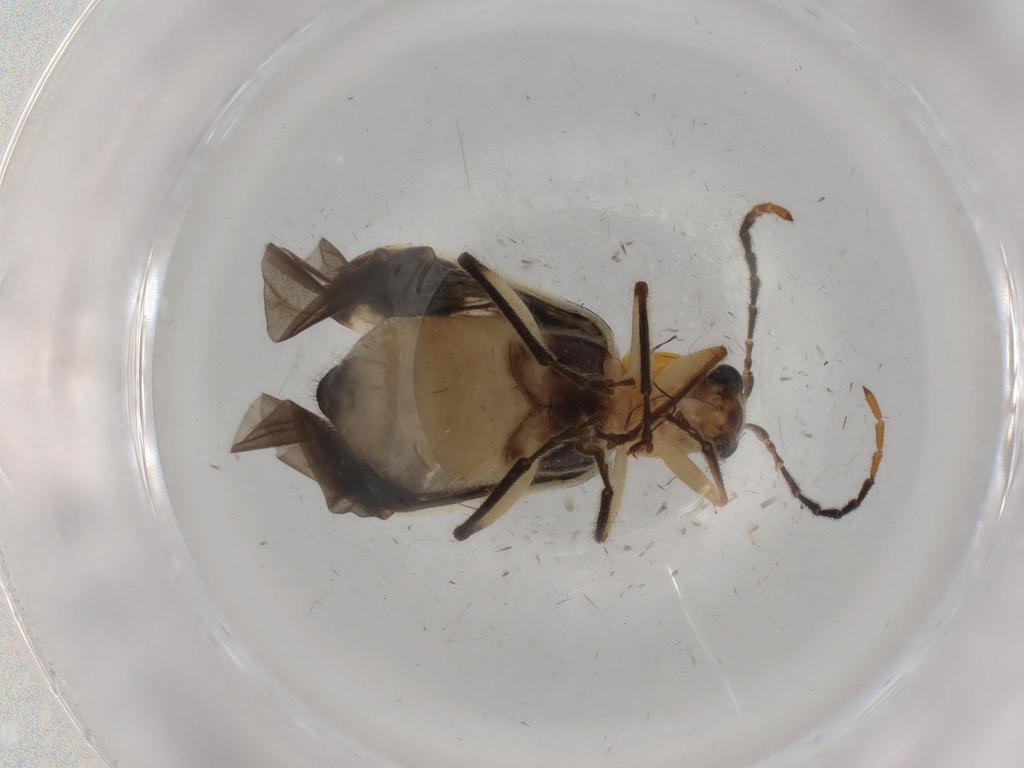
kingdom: Animalia
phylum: Arthropoda
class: Insecta
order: Coleoptera
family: Chrysomelidae
